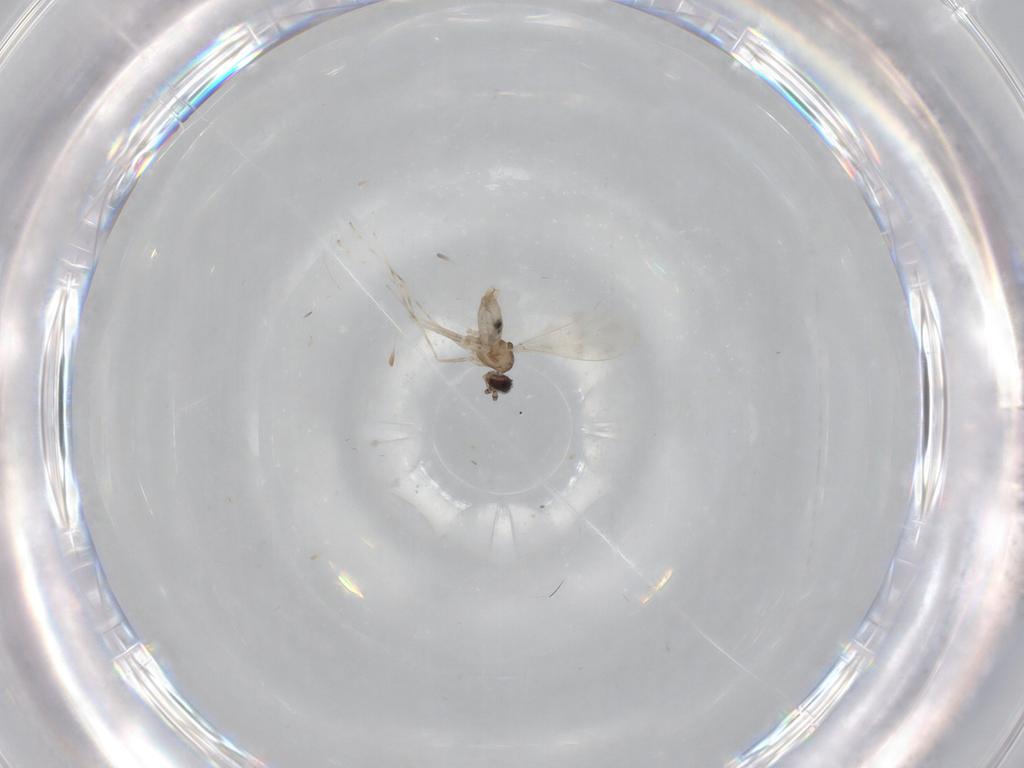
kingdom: Animalia
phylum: Arthropoda
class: Insecta
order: Diptera
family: Cecidomyiidae
